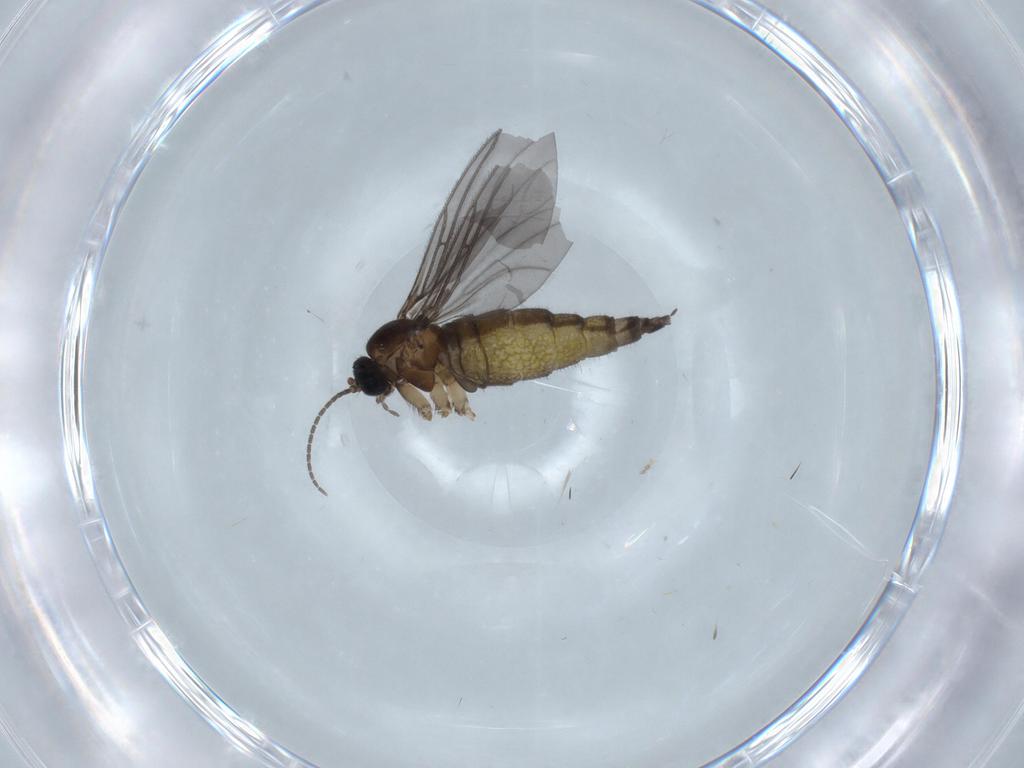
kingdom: Animalia
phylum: Arthropoda
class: Insecta
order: Diptera
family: Sciaridae
